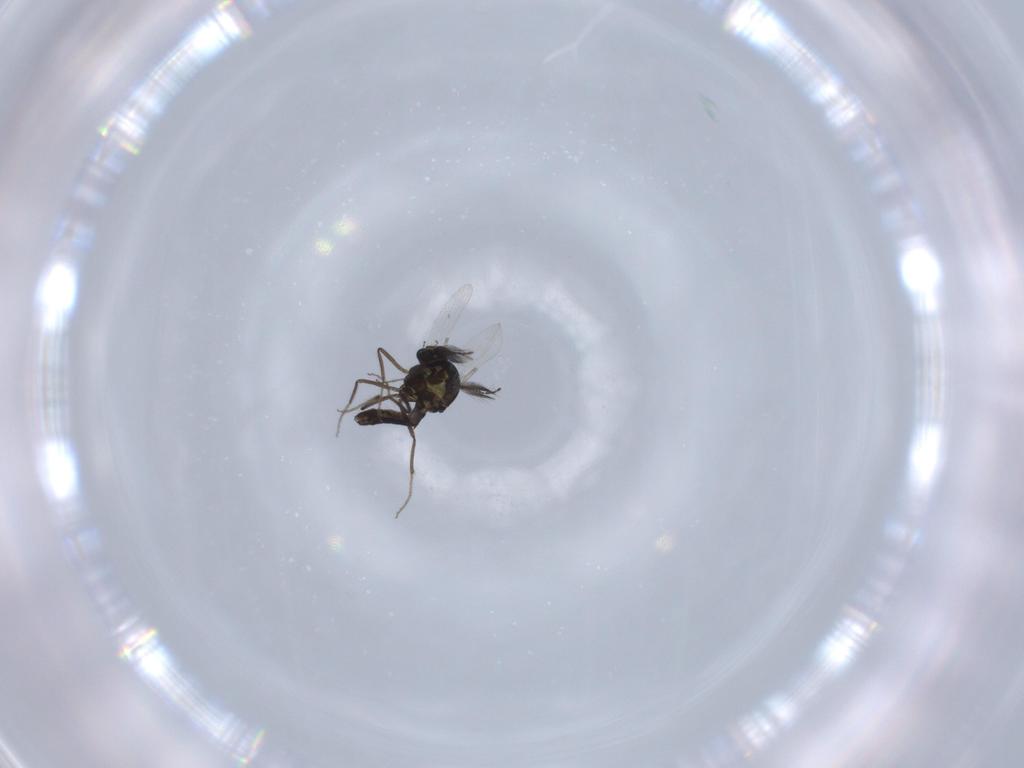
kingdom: Animalia
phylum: Arthropoda
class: Insecta
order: Diptera
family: Ceratopogonidae
